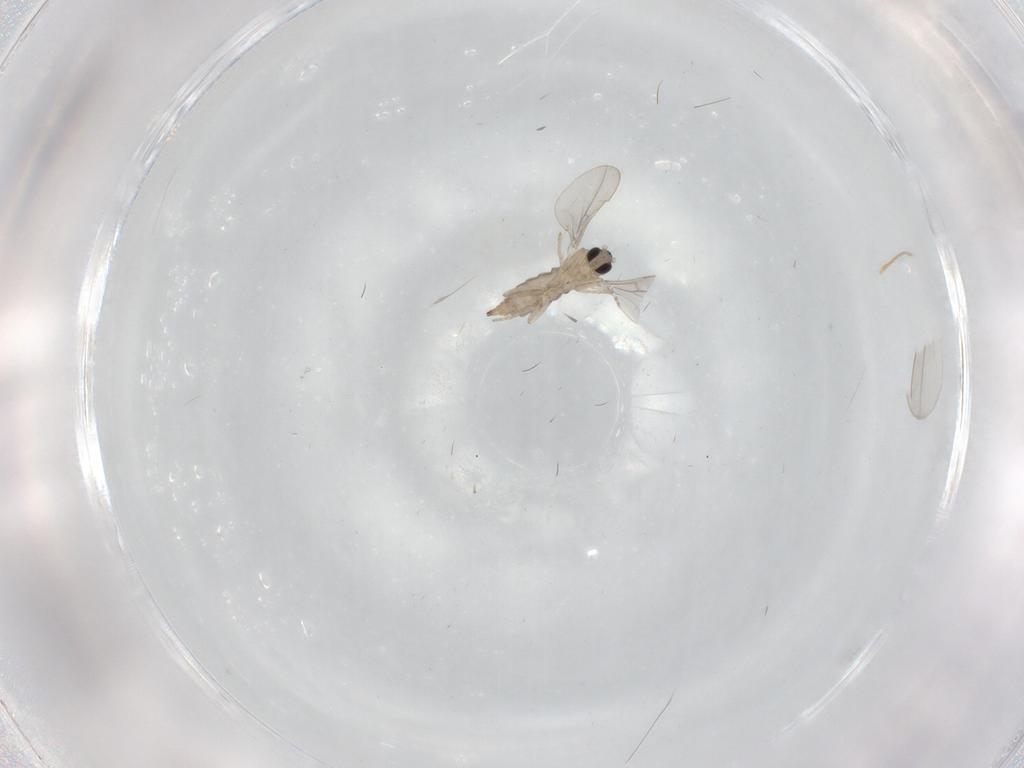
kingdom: Animalia
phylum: Arthropoda
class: Insecta
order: Diptera
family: Cecidomyiidae
